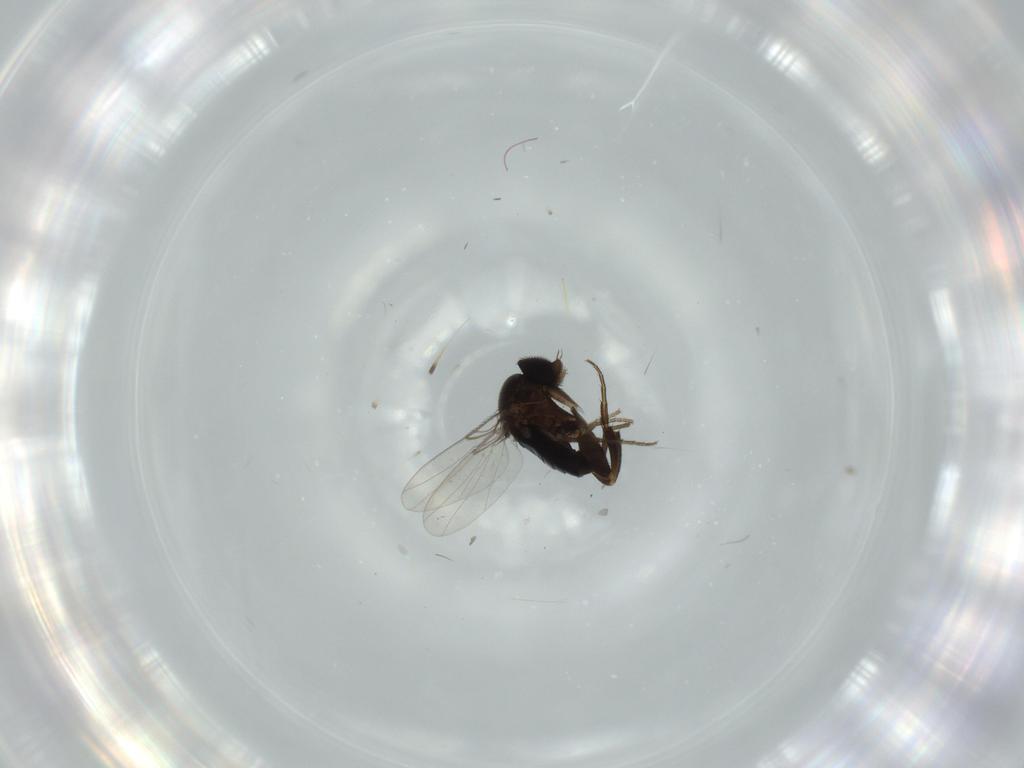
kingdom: Animalia
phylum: Arthropoda
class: Insecta
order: Diptera
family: Phoridae
